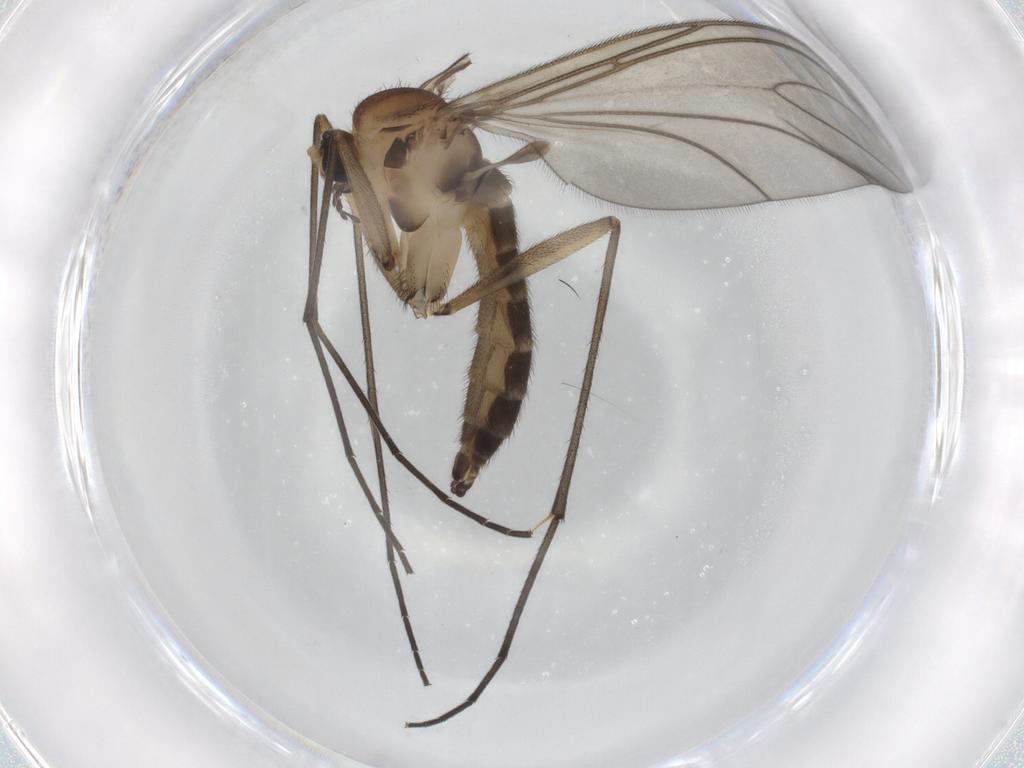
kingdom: Animalia
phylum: Arthropoda
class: Insecta
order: Diptera
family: Sciaridae
